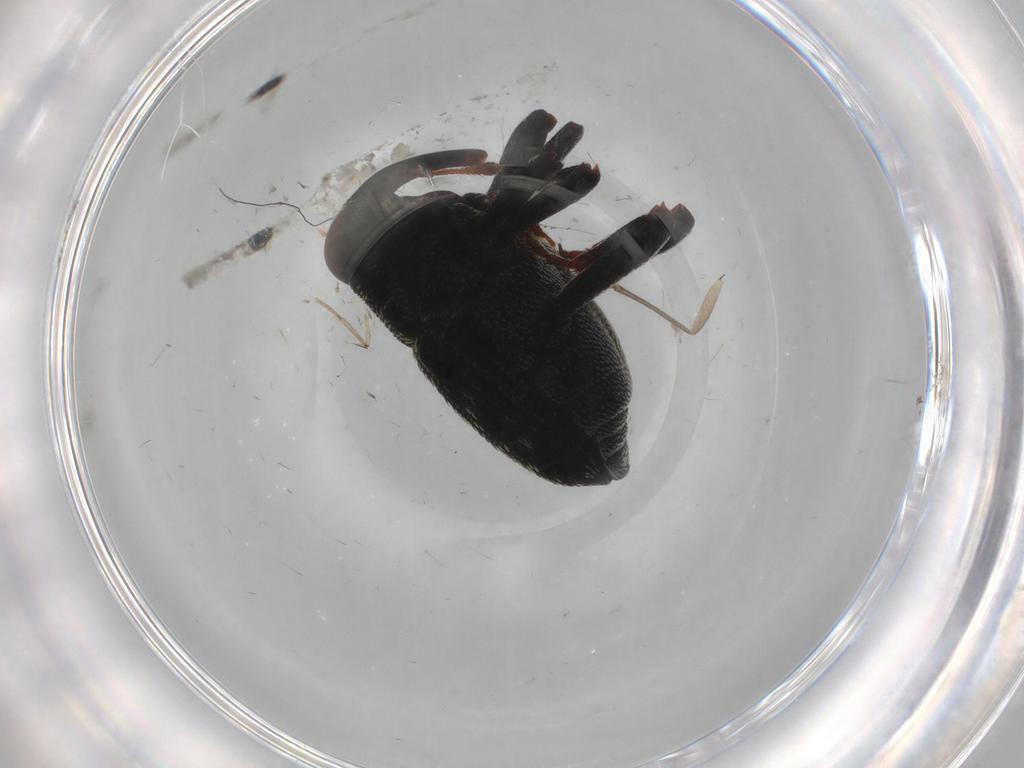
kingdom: Animalia
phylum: Arthropoda
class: Insecta
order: Coleoptera
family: Curculionidae
